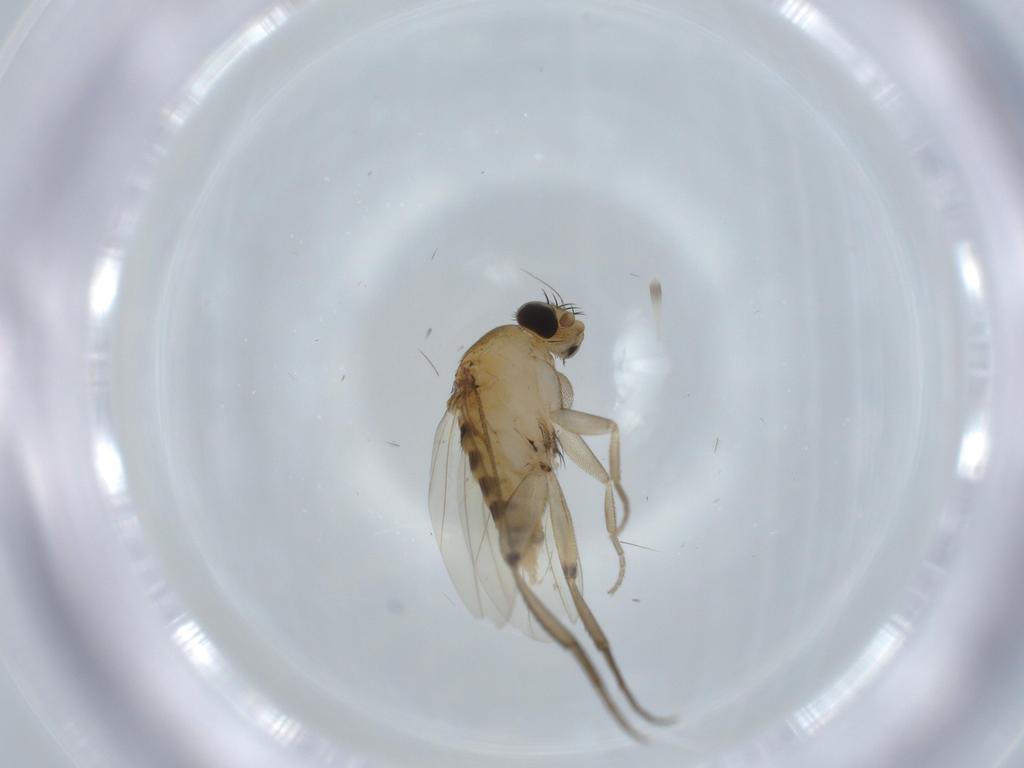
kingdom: Animalia
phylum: Arthropoda
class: Insecta
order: Diptera
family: Phoridae
